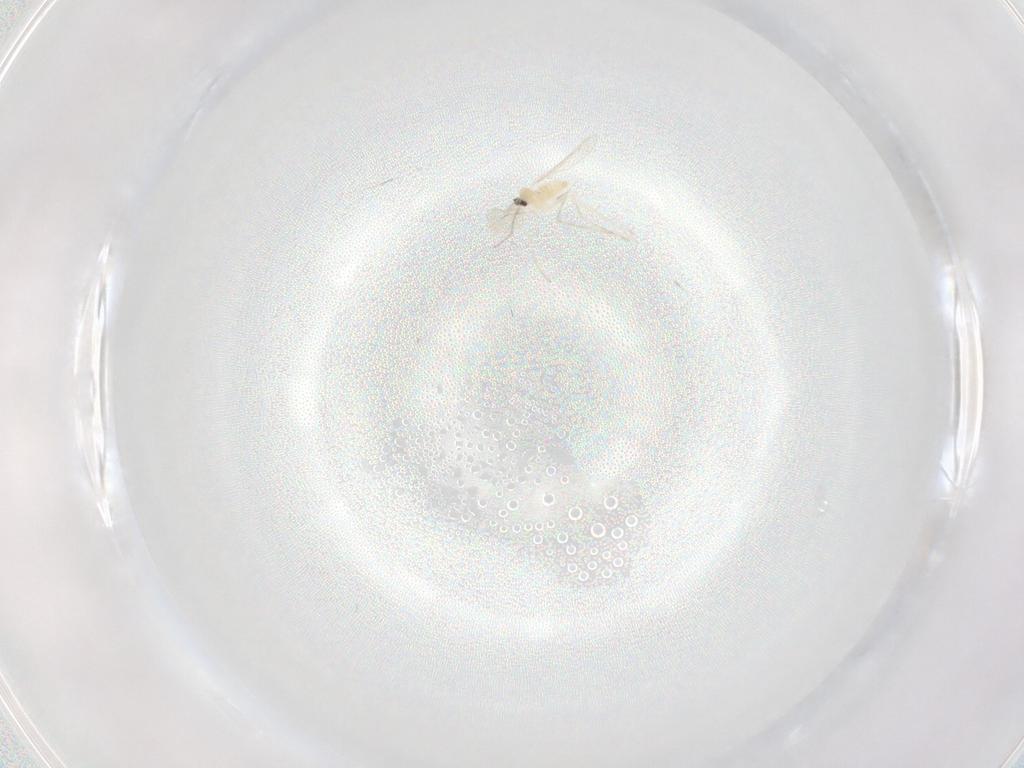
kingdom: Animalia
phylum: Arthropoda
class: Insecta
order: Diptera
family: Cecidomyiidae
